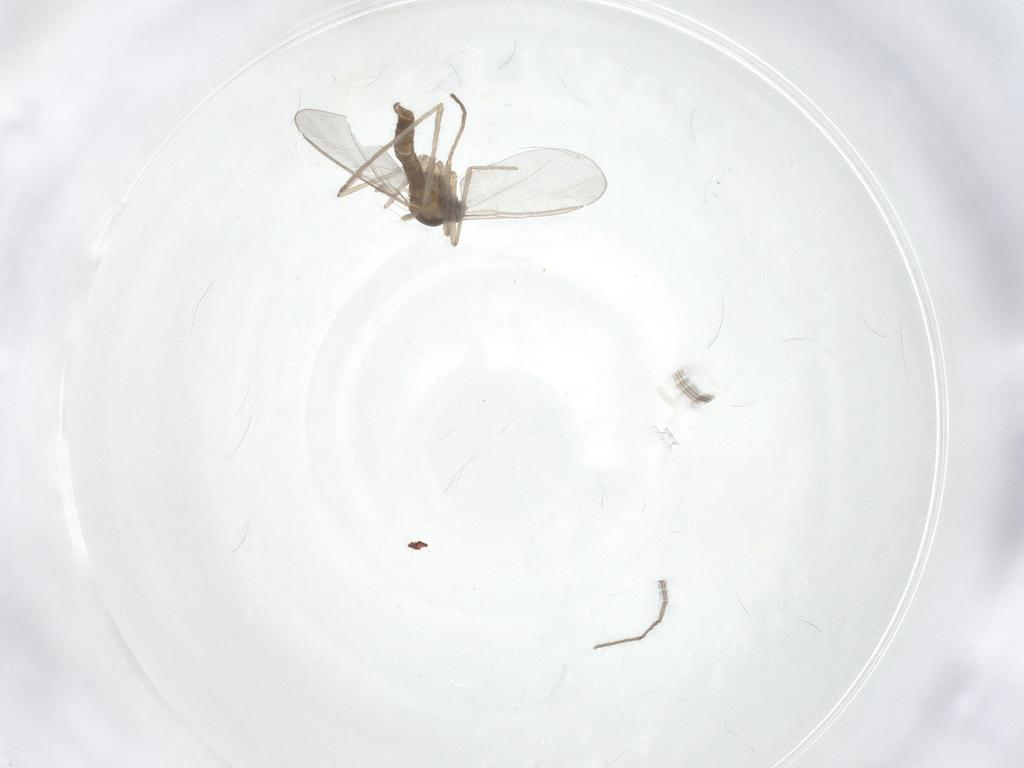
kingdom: Animalia
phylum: Arthropoda
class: Insecta
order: Diptera
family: Cecidomyiidae
